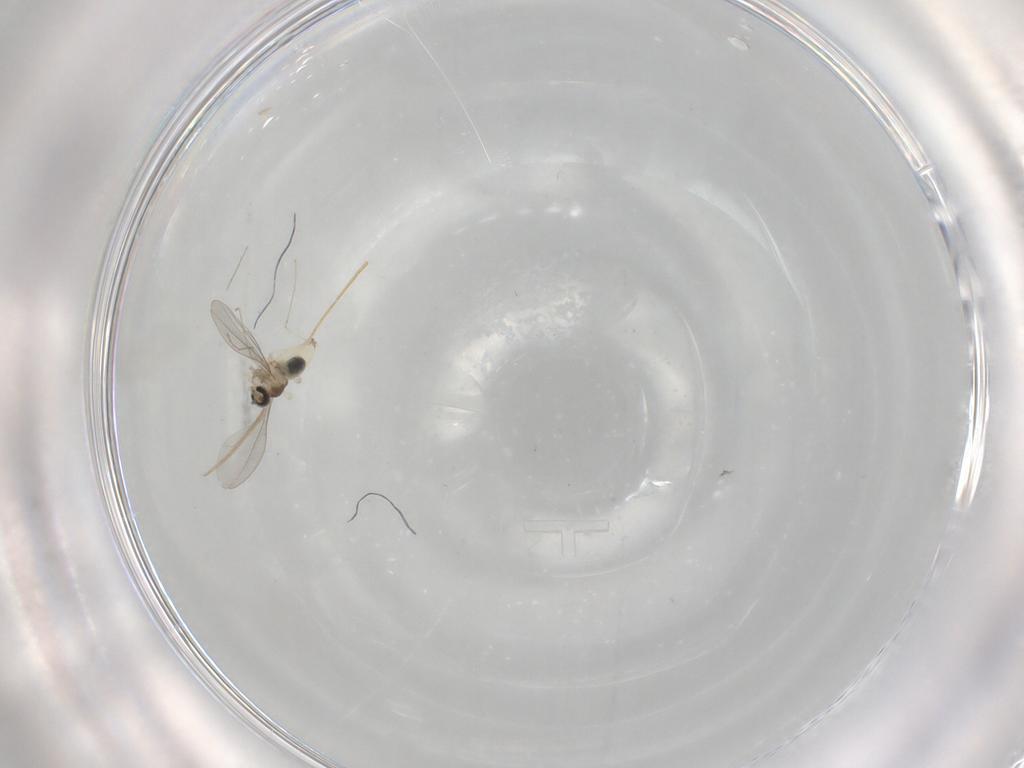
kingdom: Animalia
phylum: Arthropoda
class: Insecta
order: Diptera
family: Cecidomyiidae
